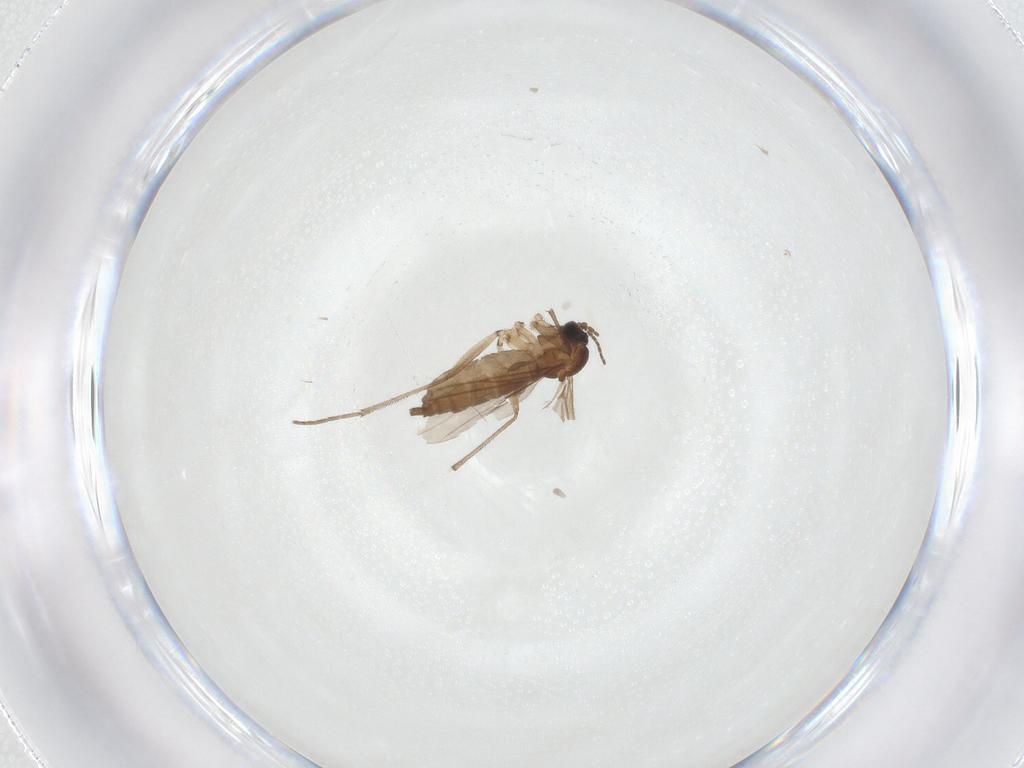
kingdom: Animalia
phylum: Arthropoda
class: Insecta
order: Diptera
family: Sciaridae
